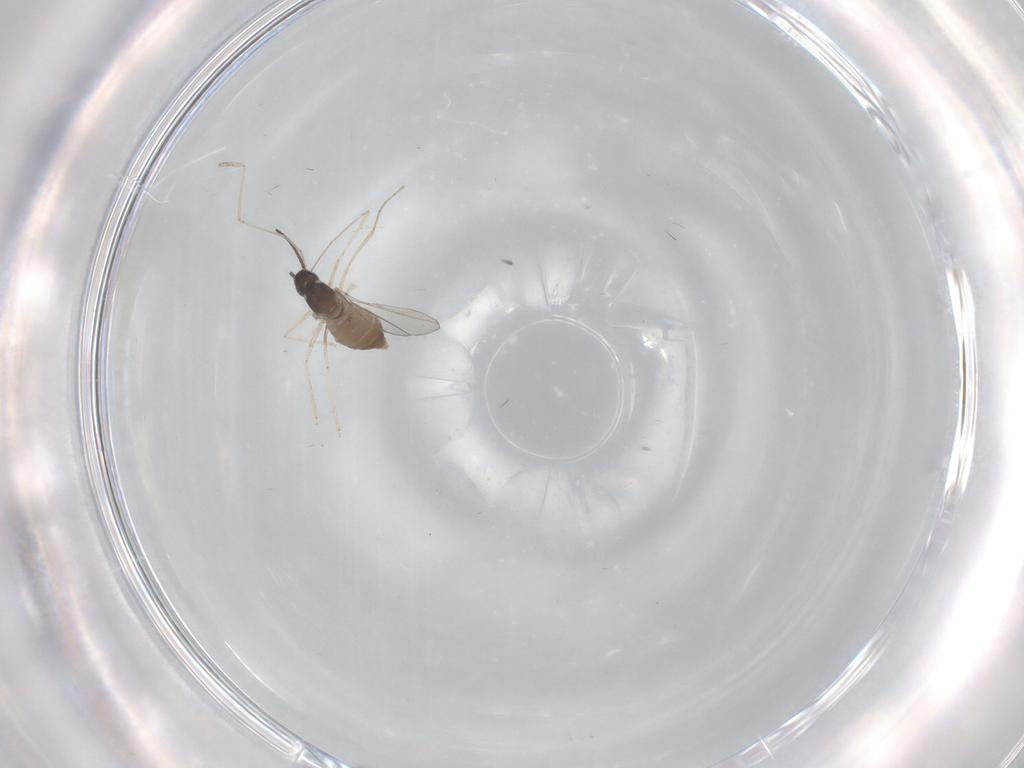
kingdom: Animalia
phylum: Arthropoda
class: Insecta
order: Diptera
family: Cecidomyiidae
